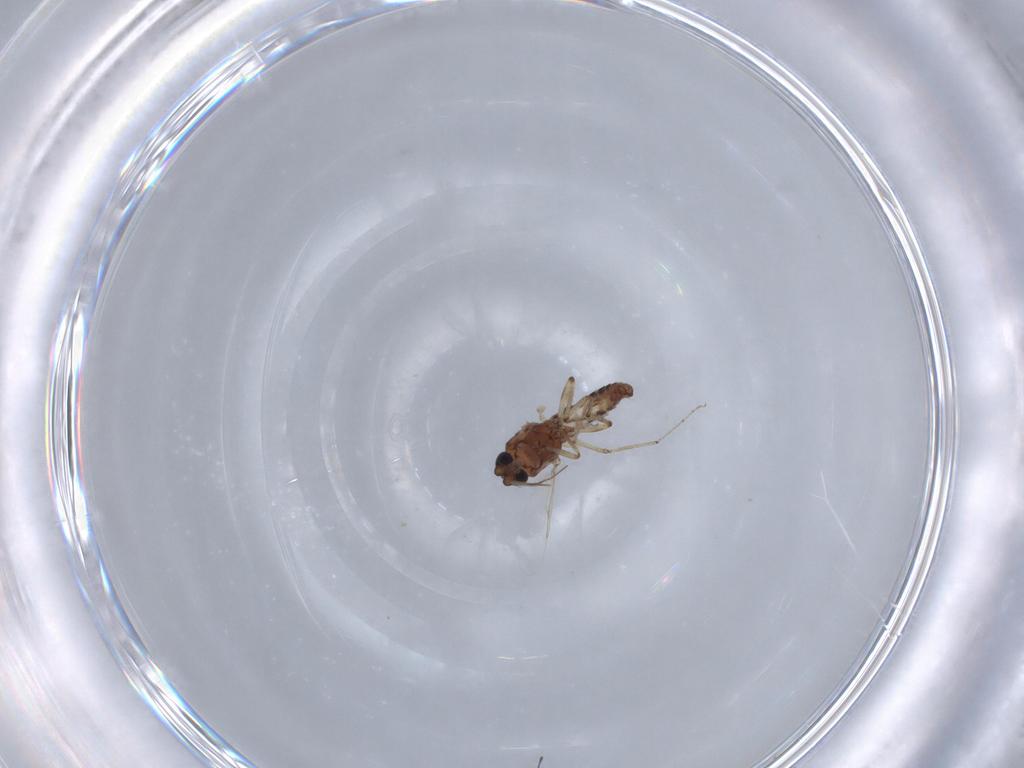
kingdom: Animalia
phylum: Arthropoda
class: Insecta
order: Diptera
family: Ceratopogonidae
